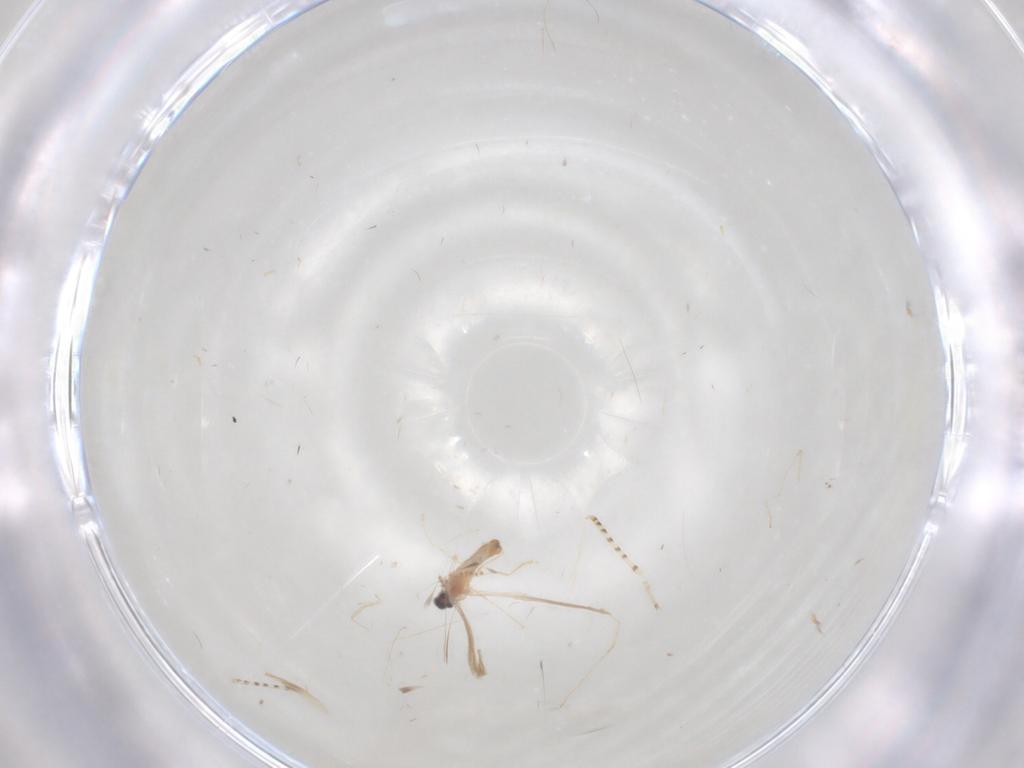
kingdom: Animalia
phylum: Arthropoda
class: Insecta
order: Diptera
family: Cecidomyiidae
